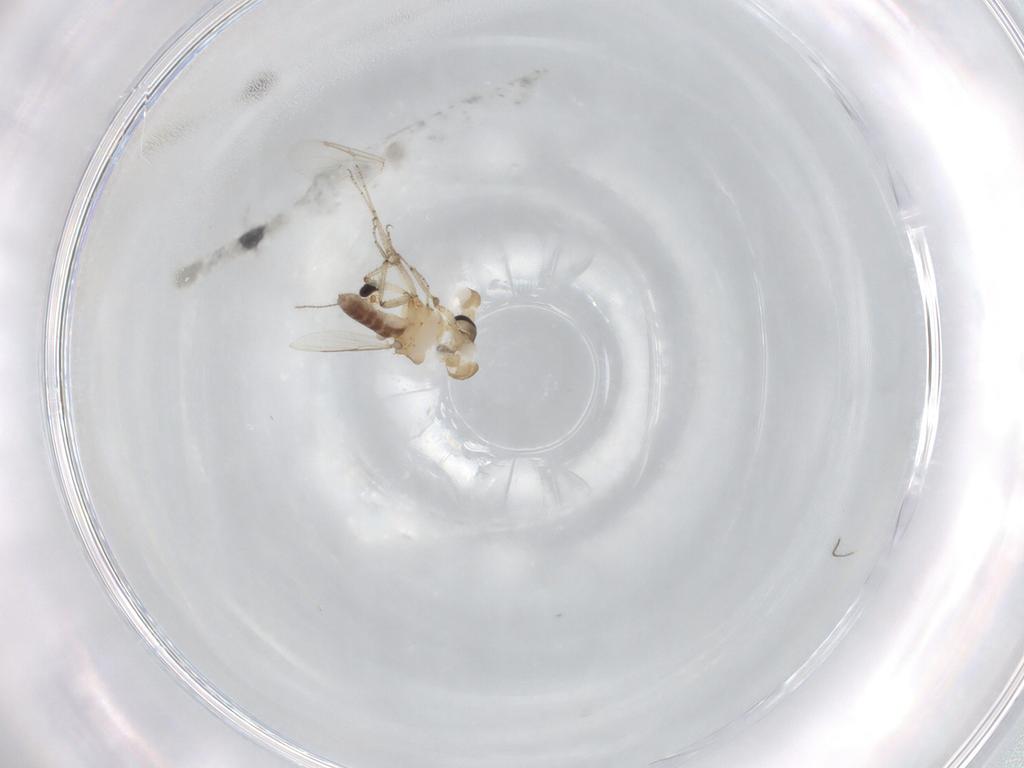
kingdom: Animalia
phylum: Arthropoda
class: Insecta
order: Diptera
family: Ceratopogonidae
